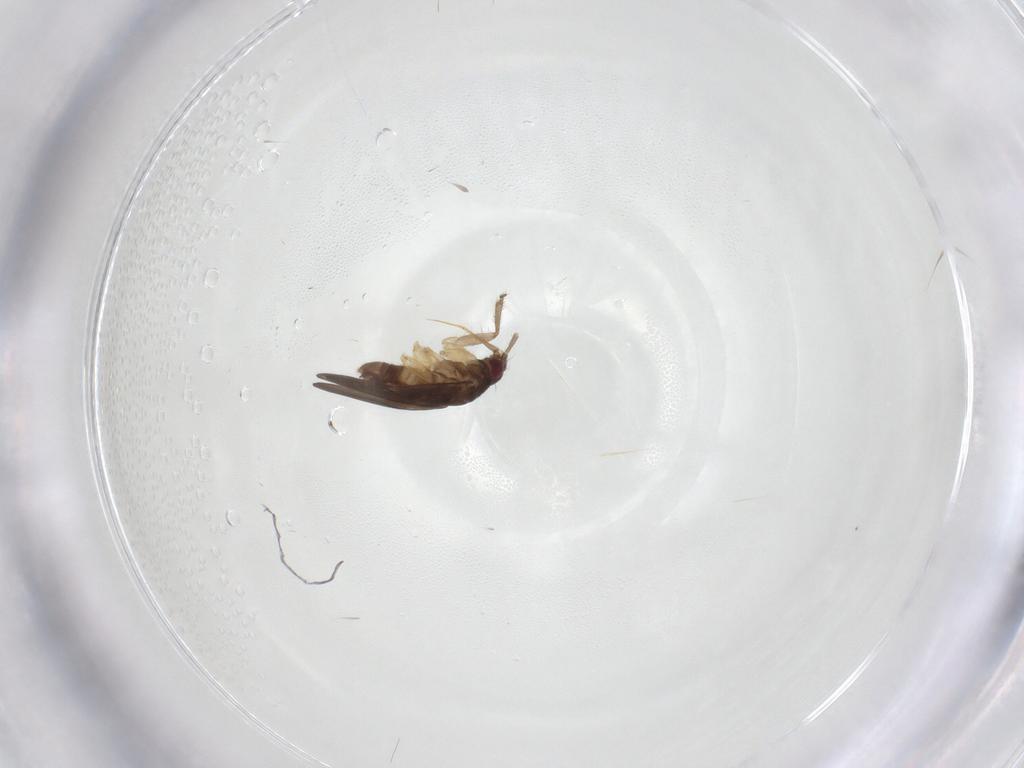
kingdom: Animalia
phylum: Arthropoda
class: Insecta
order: Hemiptera
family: Ceratocombidae
